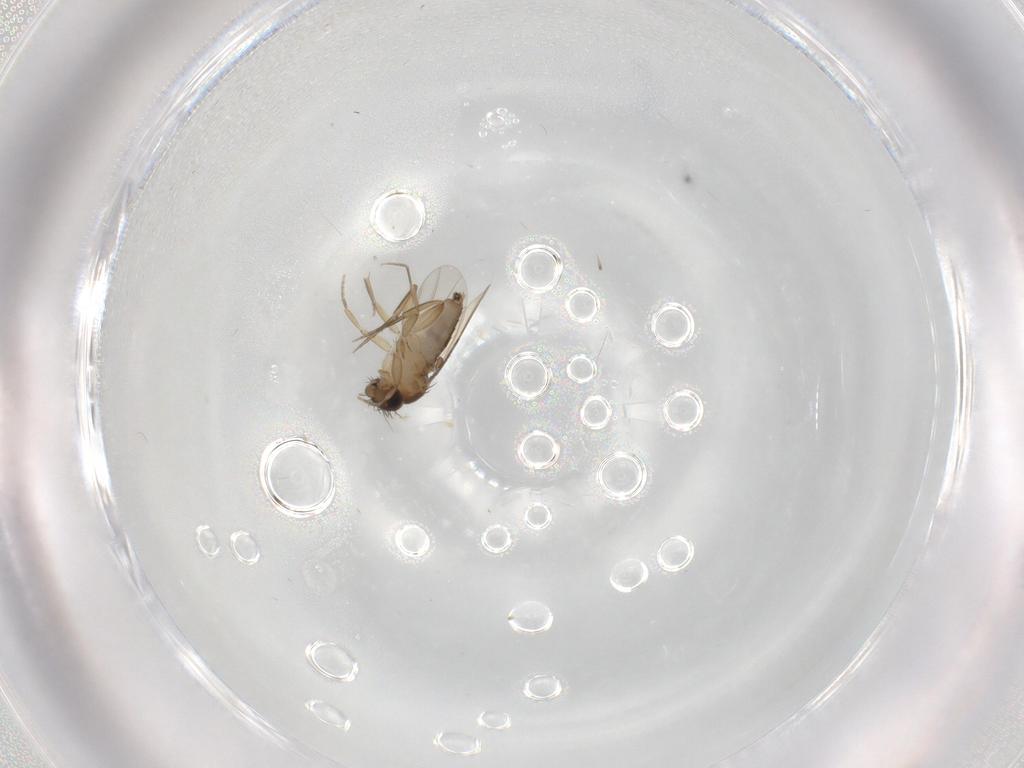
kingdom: Animalia
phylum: Arthropoda
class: Insecta
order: Diptera
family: Phoridae
